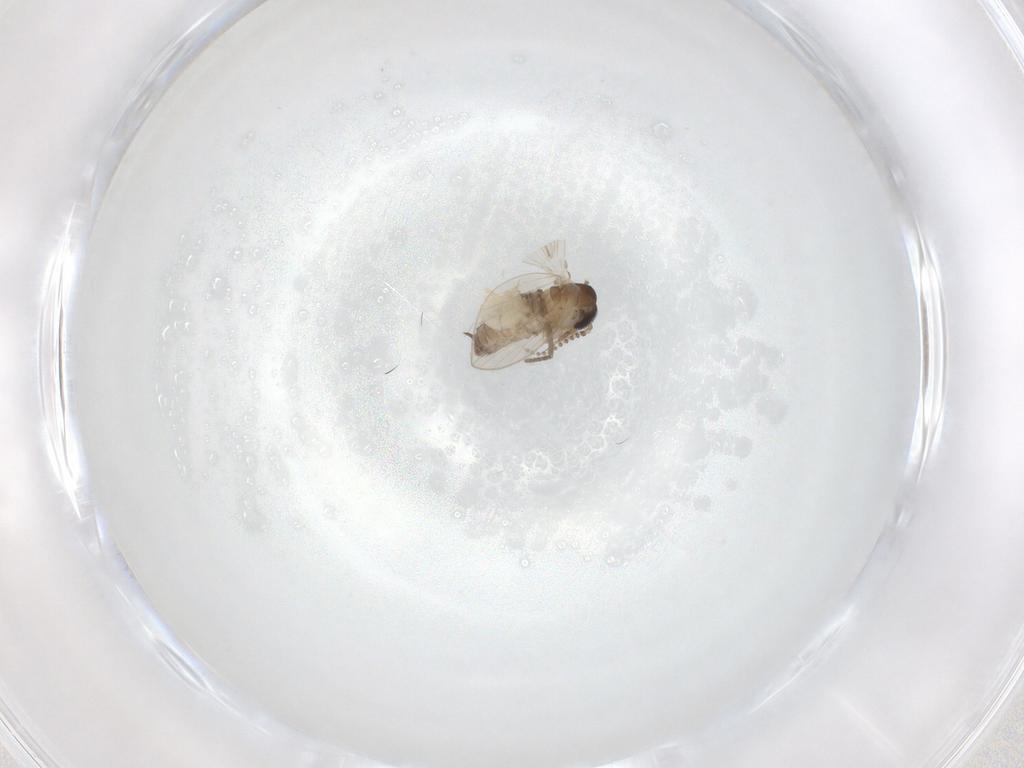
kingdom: Animalia
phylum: Arthropoda
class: Insecta
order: Diptera
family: Psychodidae
